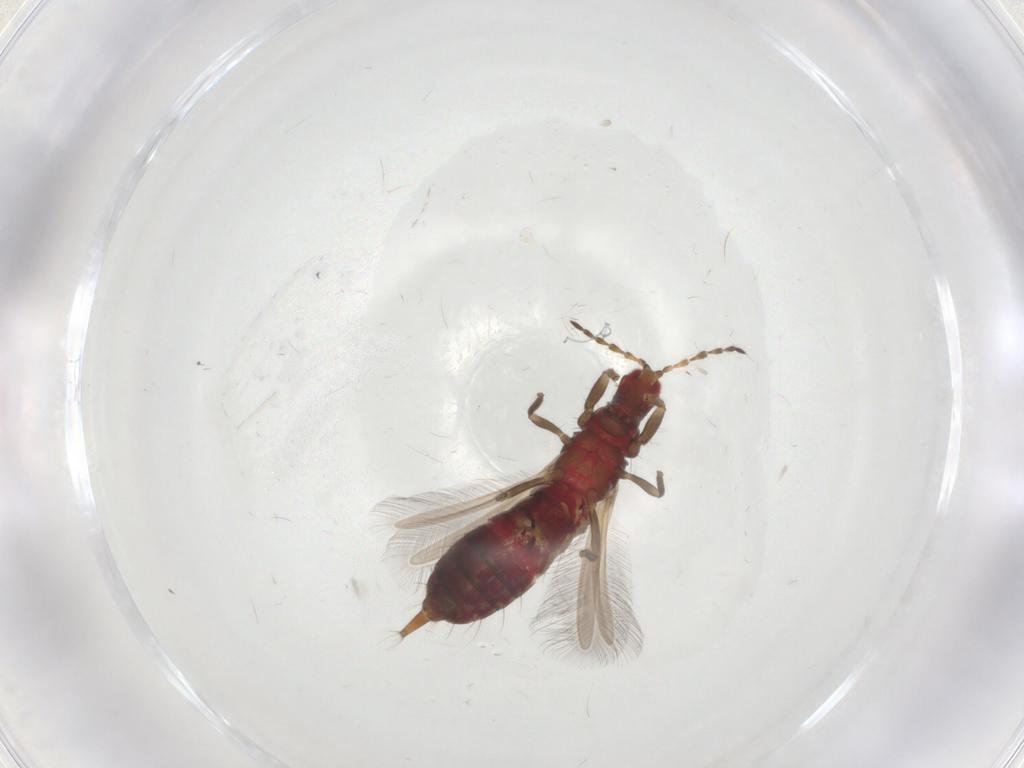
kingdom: Animalia
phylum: Arthropoda
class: Insecta
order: Thysanoptera
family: Phlaeothripidae
